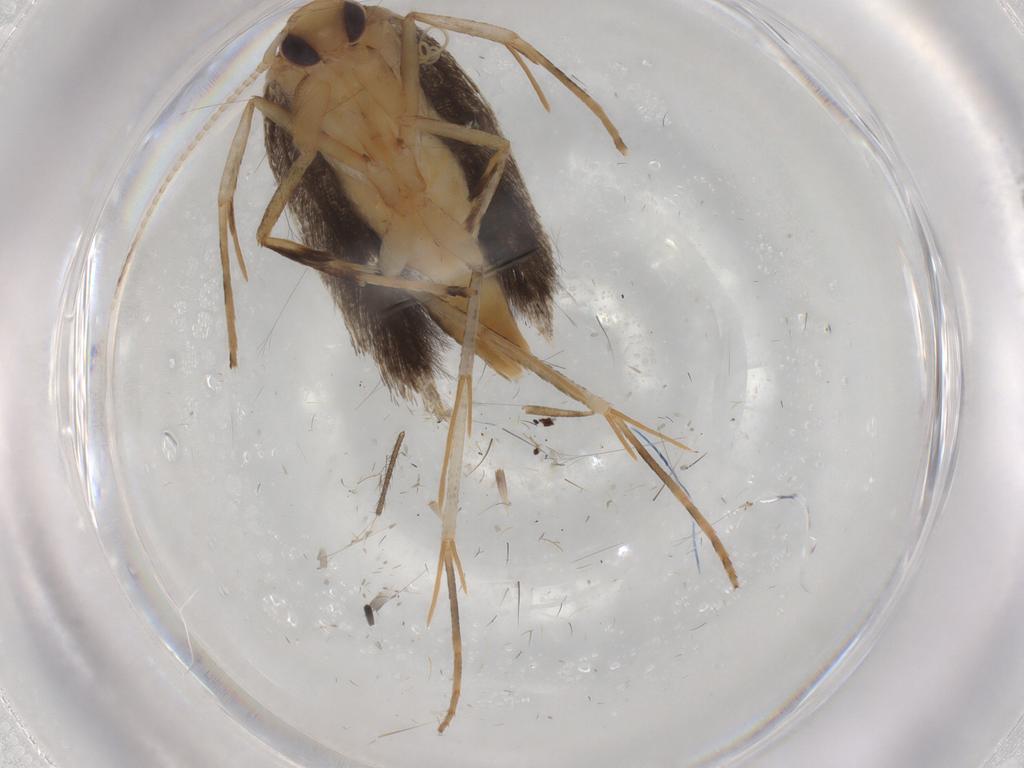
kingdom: Animalia
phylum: Arthropoda
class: Insecta
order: Lepidoptera
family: Pterolonchidae
